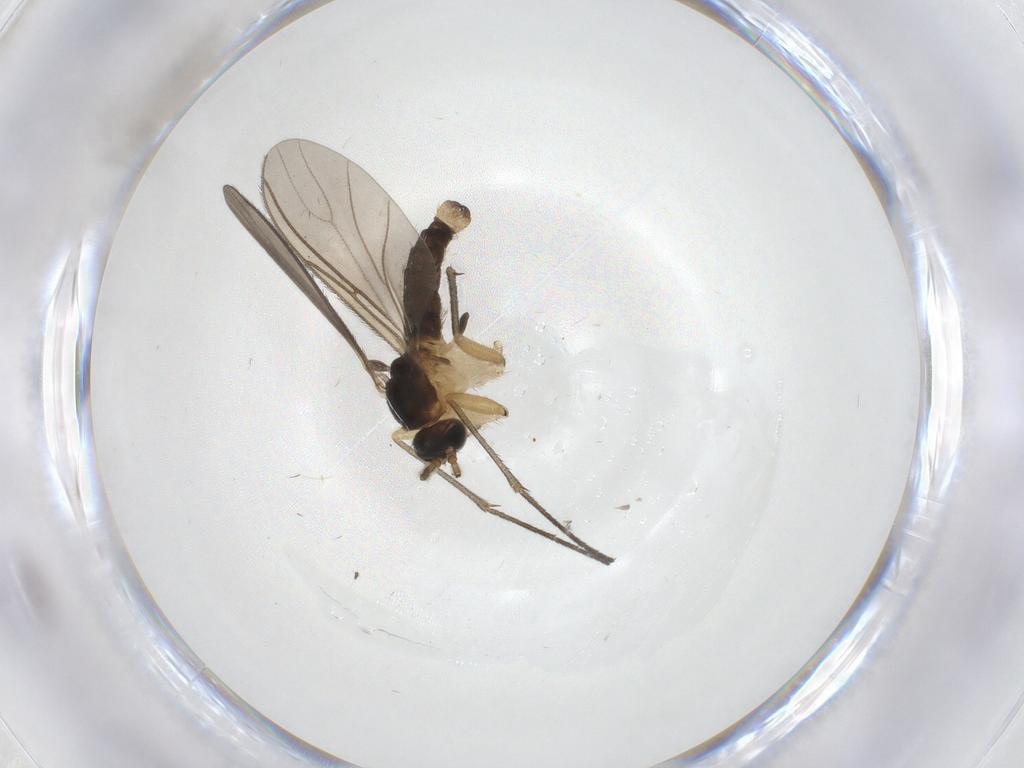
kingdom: Animalia
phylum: Arthropoda
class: Insecta
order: Diptera
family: Sciaridae
